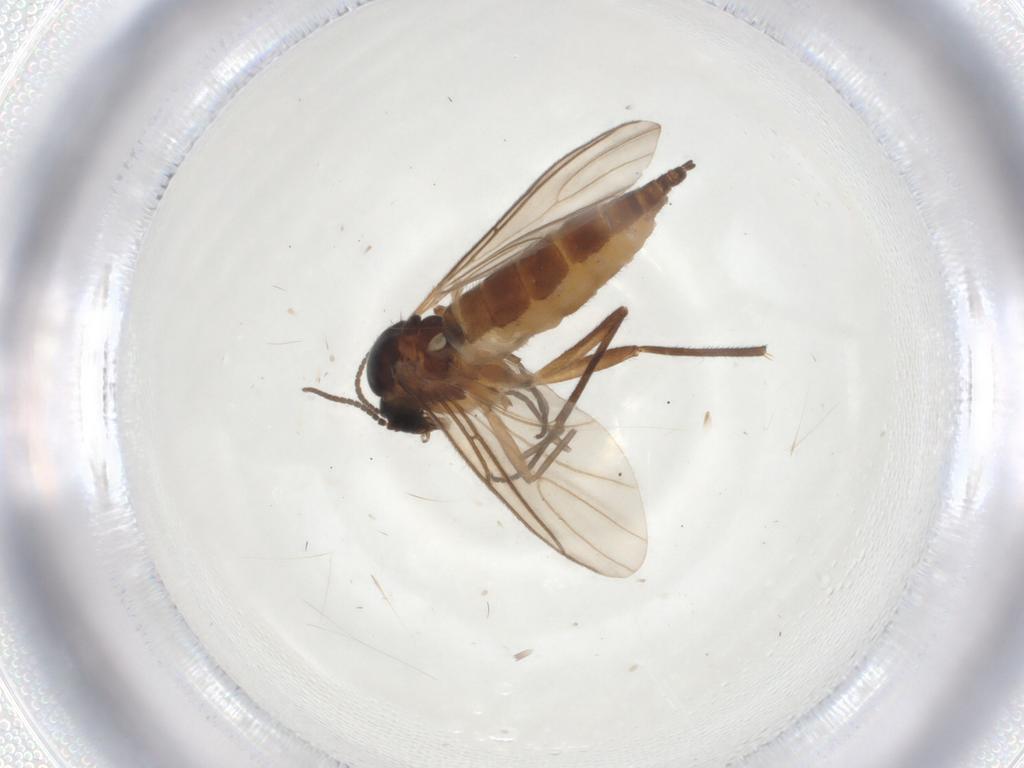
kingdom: Animalia
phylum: Arthropoda
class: Insecta
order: Diptera
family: Sciaridae
